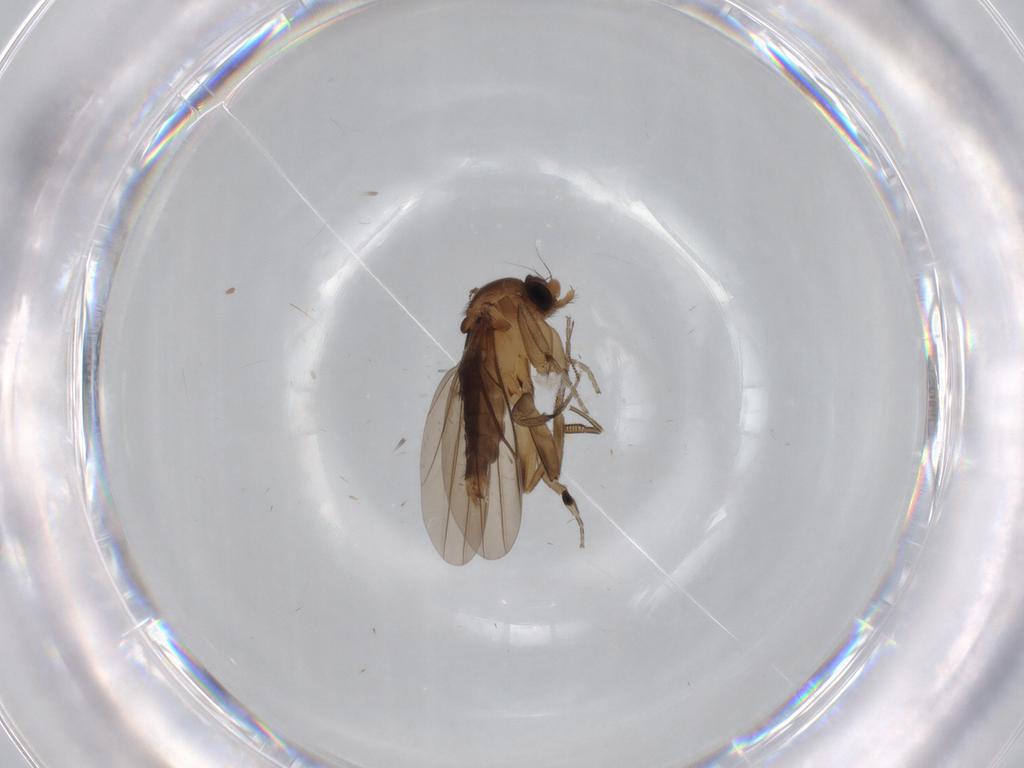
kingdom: Animalia
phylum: Arthropoda
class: Insecta
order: Diptera
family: Phoridae
